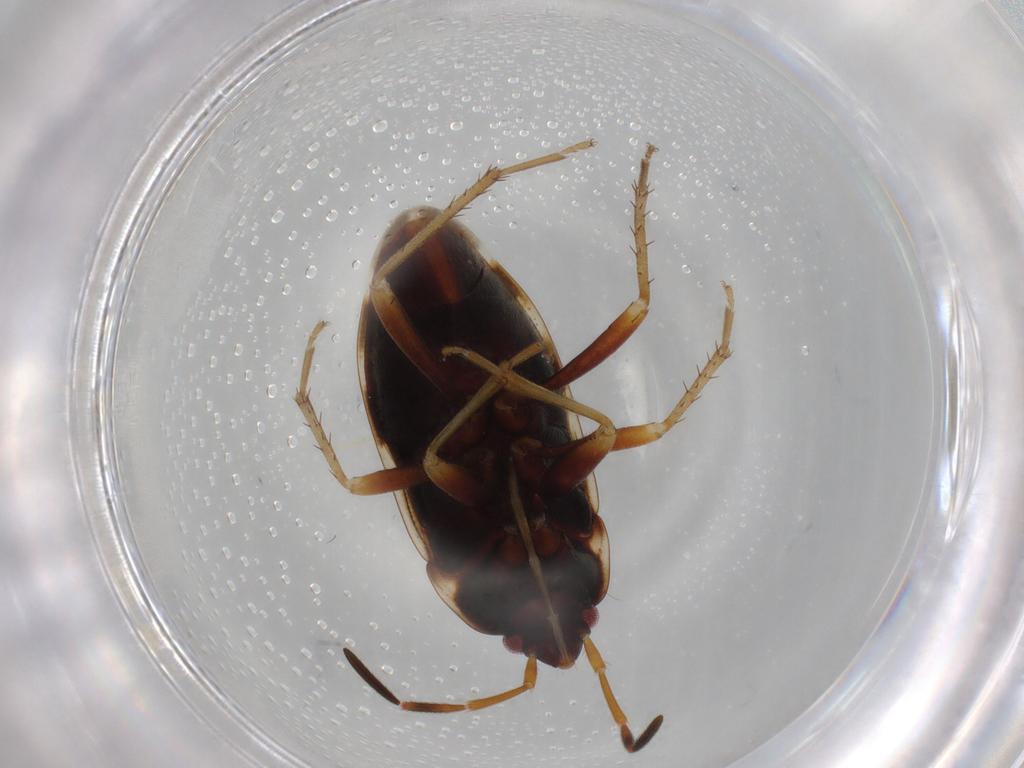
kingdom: Animalia
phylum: Arthropoda
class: Insecta
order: Hemiptera
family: Rhyparochromidae
